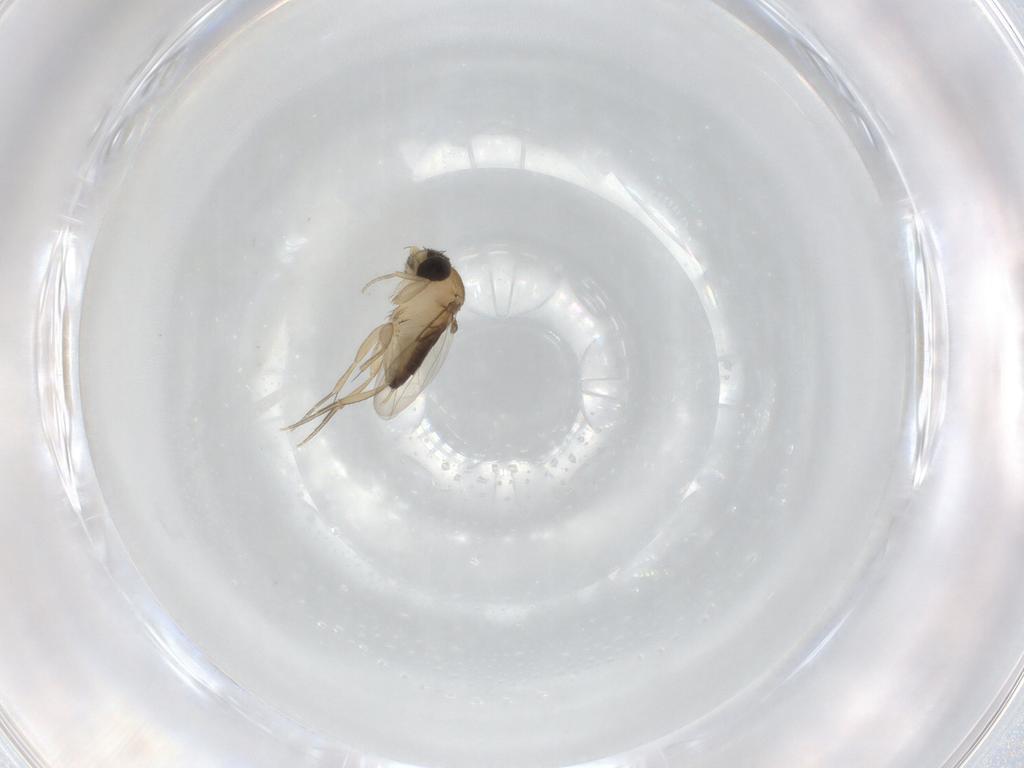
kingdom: Animalia
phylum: Arthropoda
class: Insecta
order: Diptera
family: Phoridae
